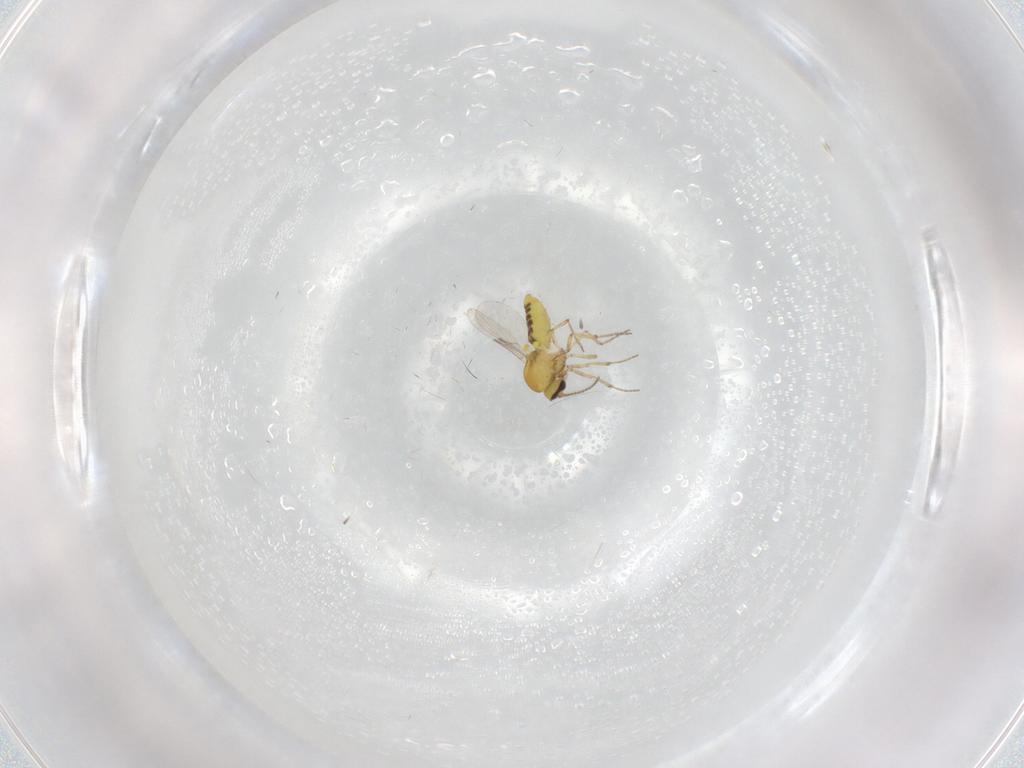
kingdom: Animalia
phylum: Arthropoda
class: Insecta
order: Diptera
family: Ceratopogonidae
